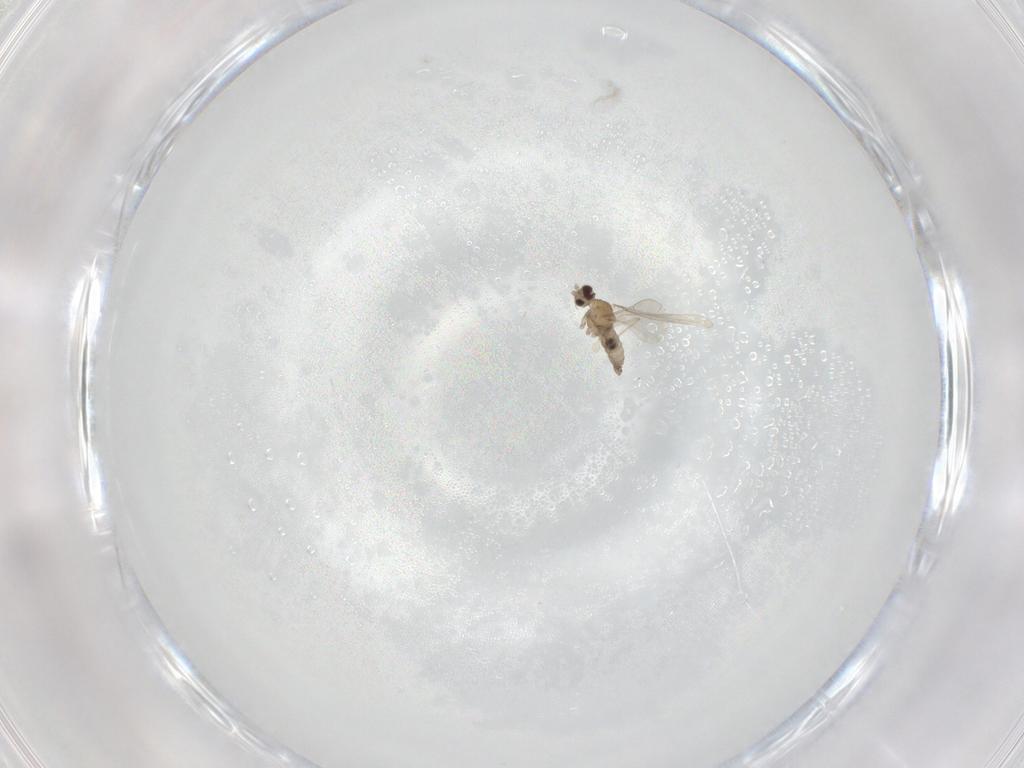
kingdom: Animalia
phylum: Arthropoda
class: Insecta
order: Diptera
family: Cecidomyiidae
